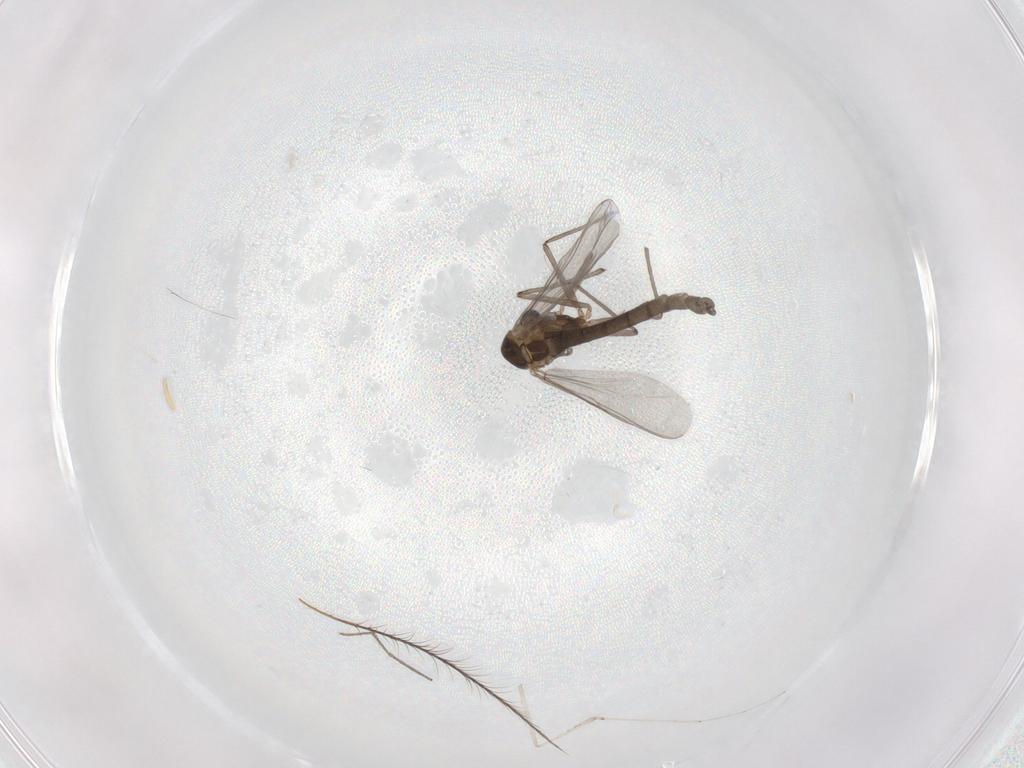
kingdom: Animalia
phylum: Arthropoda
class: Insecta
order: Diptera
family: Chironomidae
